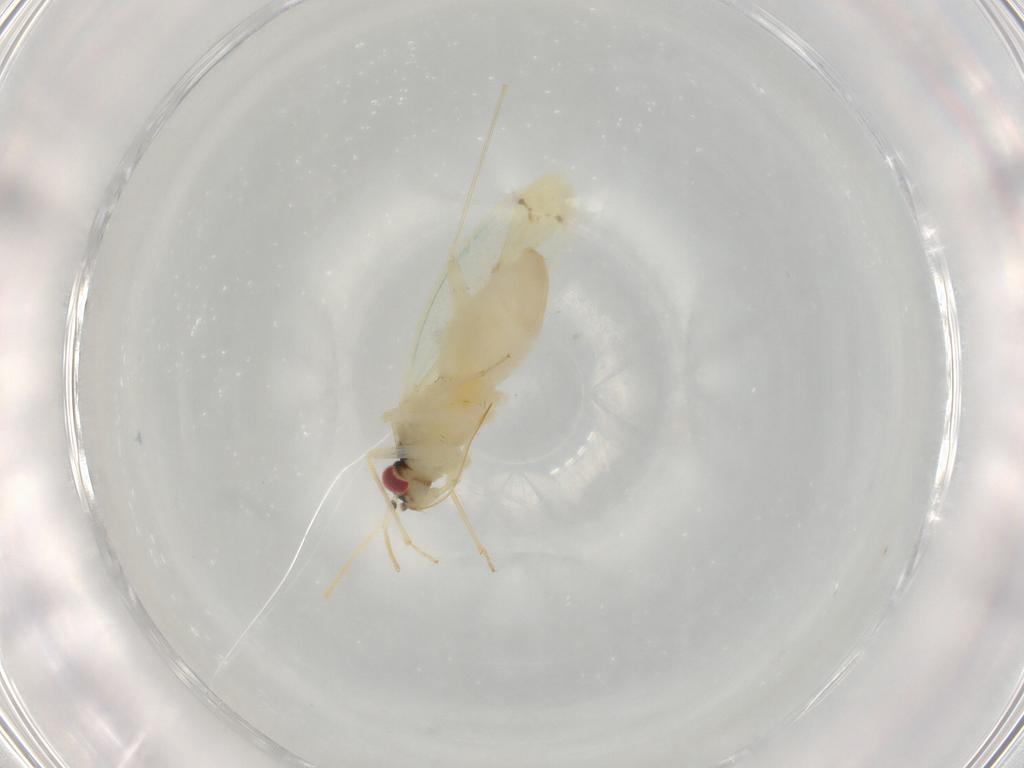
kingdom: Animalia
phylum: Arthropoda
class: Insecta
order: Hemiptera
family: Miridae
